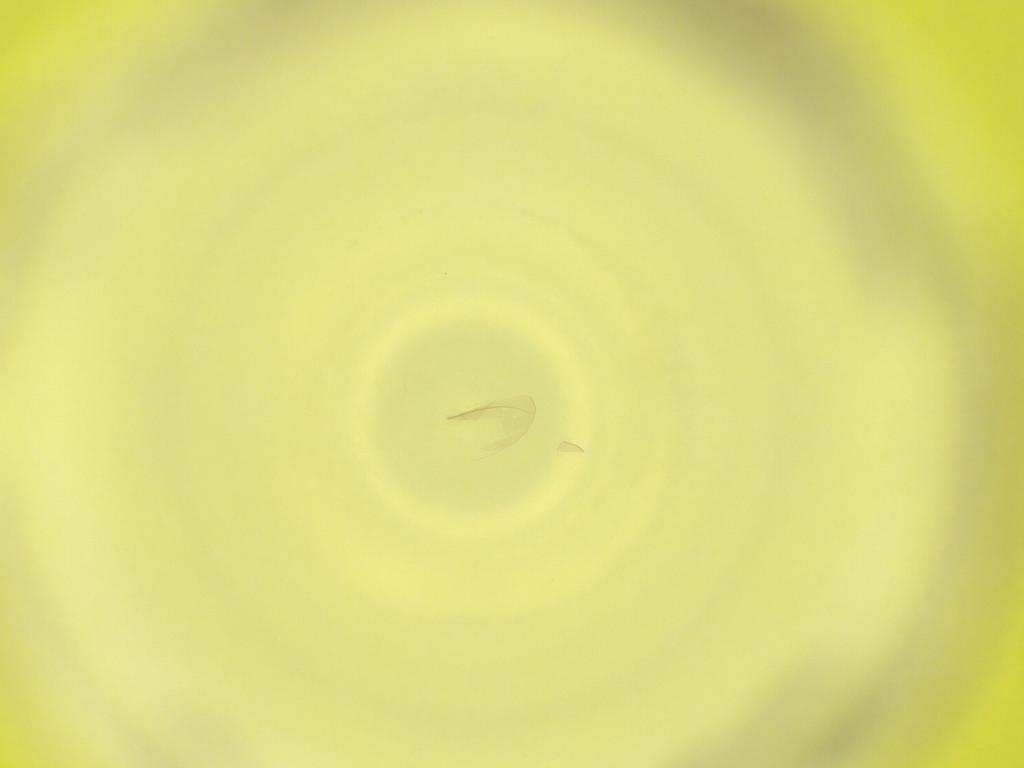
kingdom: Animalia
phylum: Arthropoda
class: Insecta
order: Diptera
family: Cecidomyiidae
